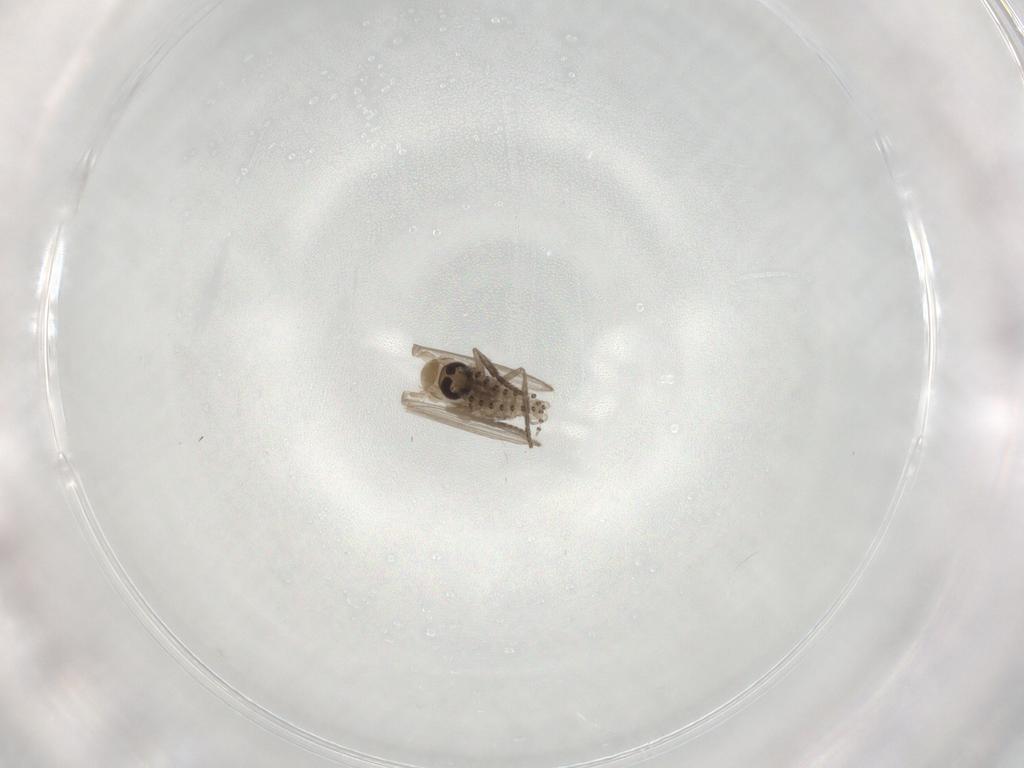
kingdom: Animalia
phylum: Arthropoda
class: Insecta
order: Diptera
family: Psychodidae
